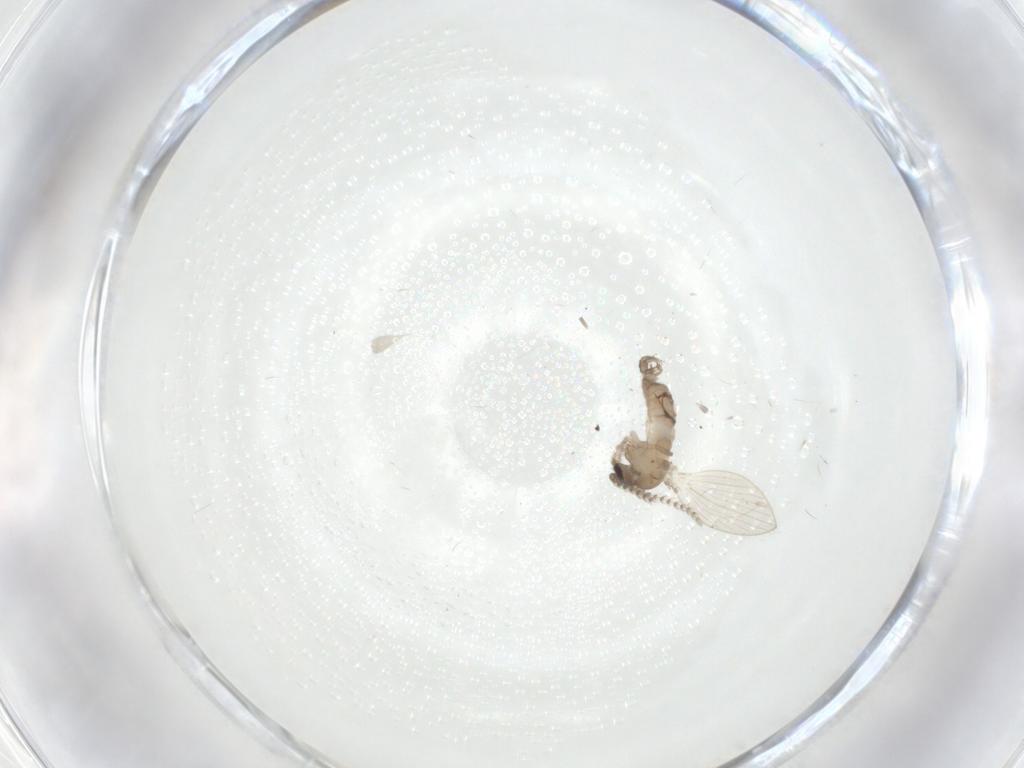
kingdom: Animalia
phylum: Arthropoda
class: Insecta
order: Diptera
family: Psychodidae
